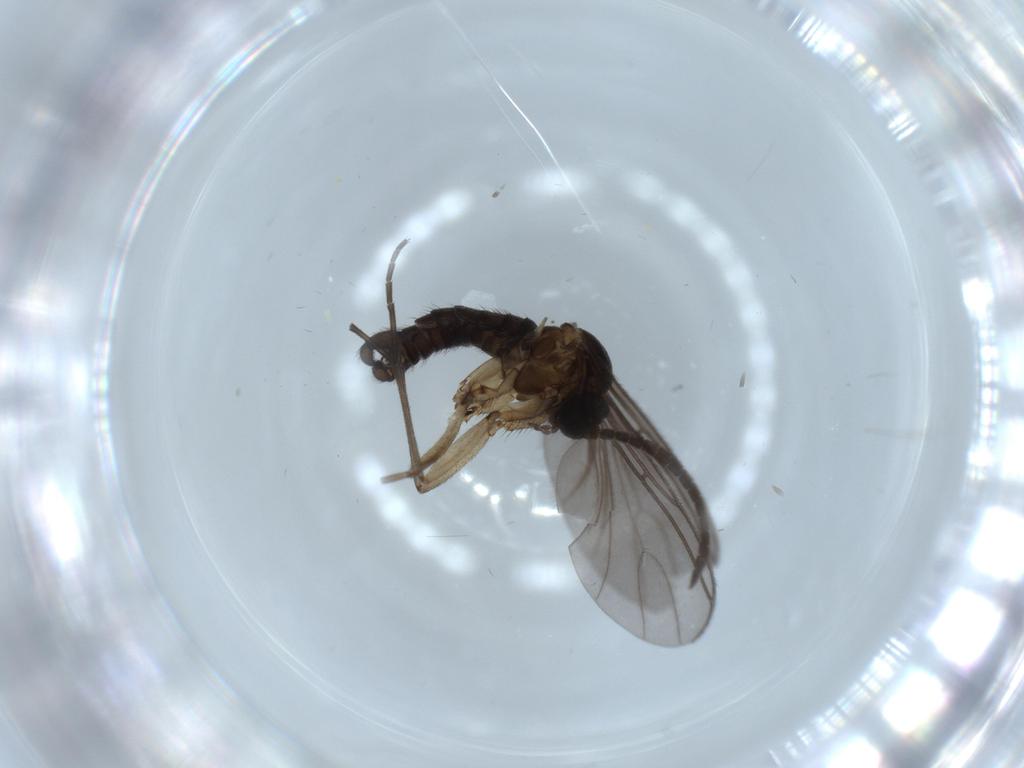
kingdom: Animalia
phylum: Arthropoda
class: Insecta
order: Diptera
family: Sciaridae
